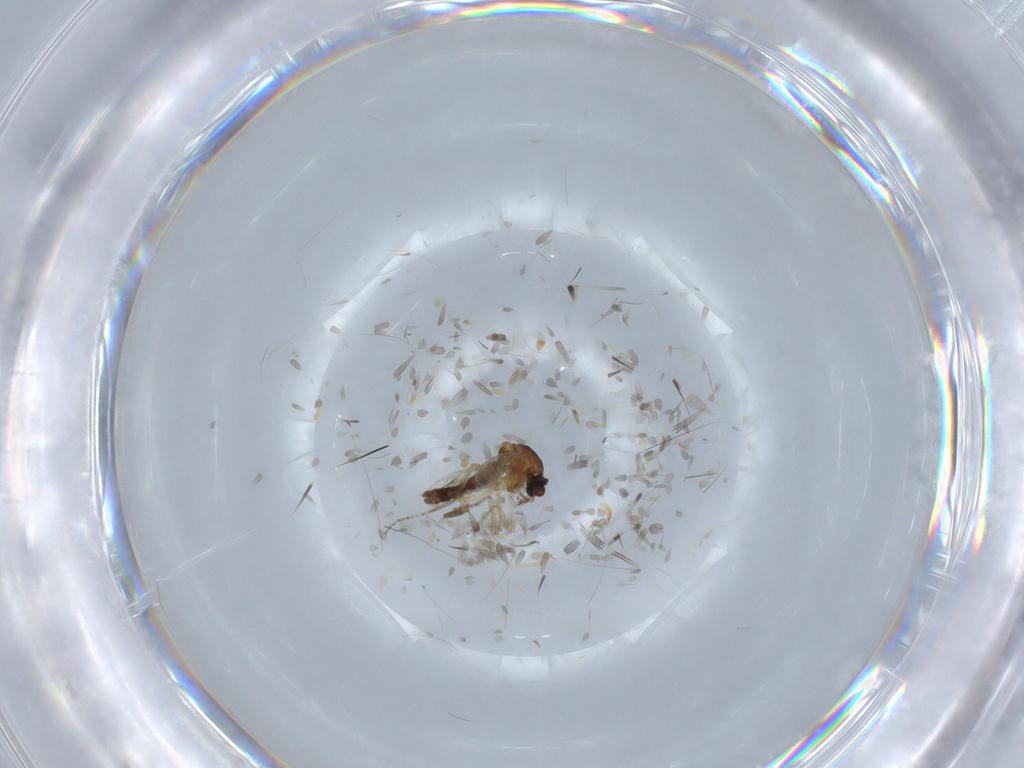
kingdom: Animalia
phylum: Arthropoda
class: Insecta
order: Diptera
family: Ceratopogonidae
